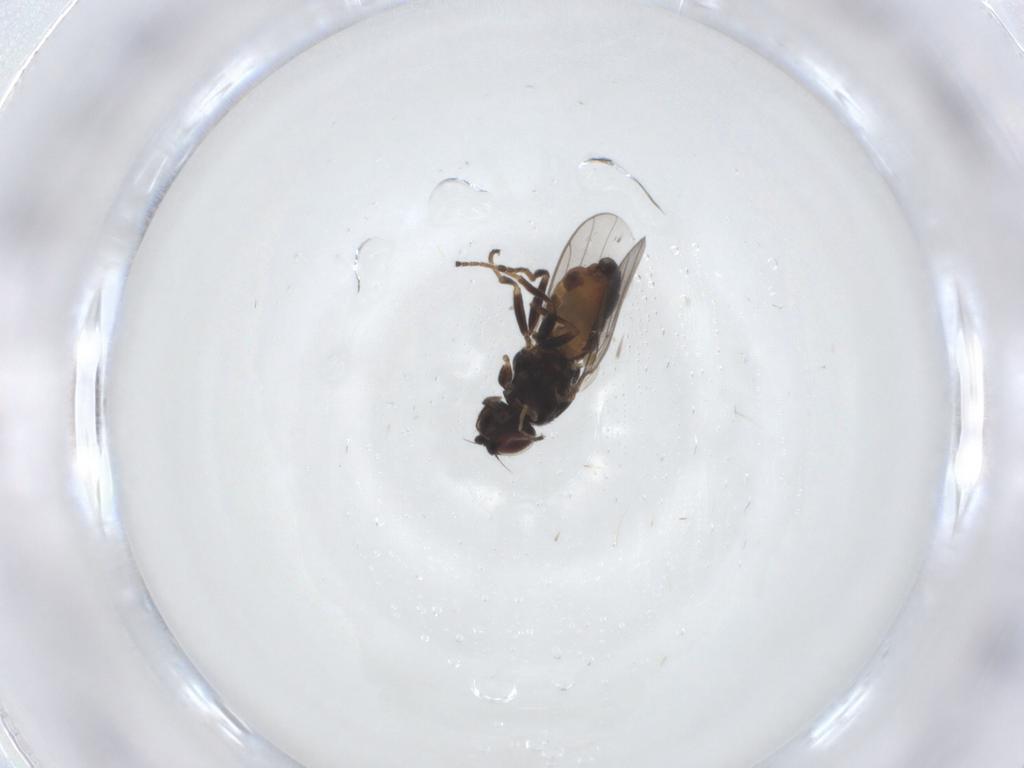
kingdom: Animalia
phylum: Arthropoda
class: Insecta
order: Diptera
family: Chloropidae
